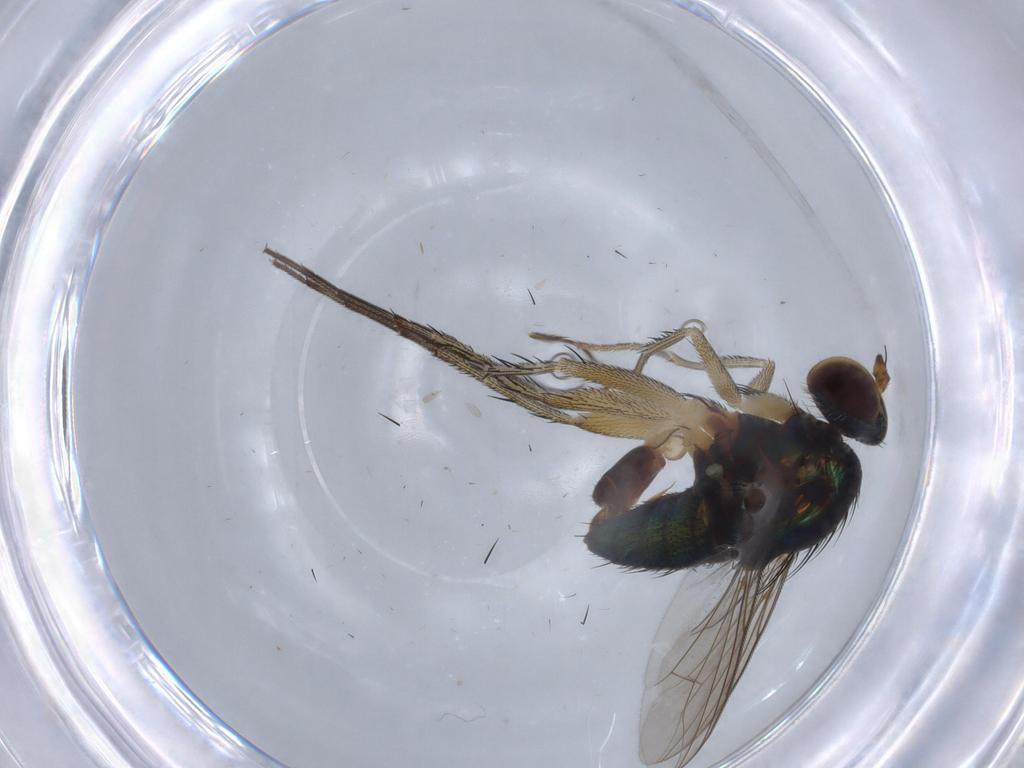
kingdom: Animalia
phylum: Arthropoda
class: Insecta
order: Diptera
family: Dolichopodidae
